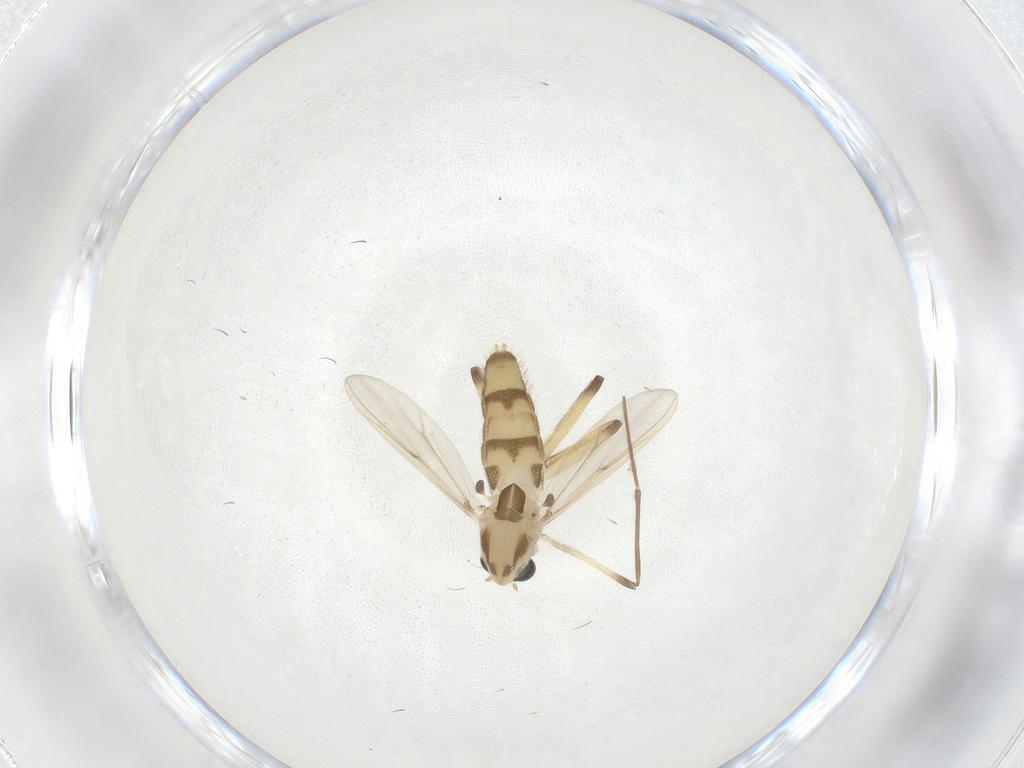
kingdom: Animalia
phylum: Arthropoda
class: Insecta
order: Diptera
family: Chironomidae
